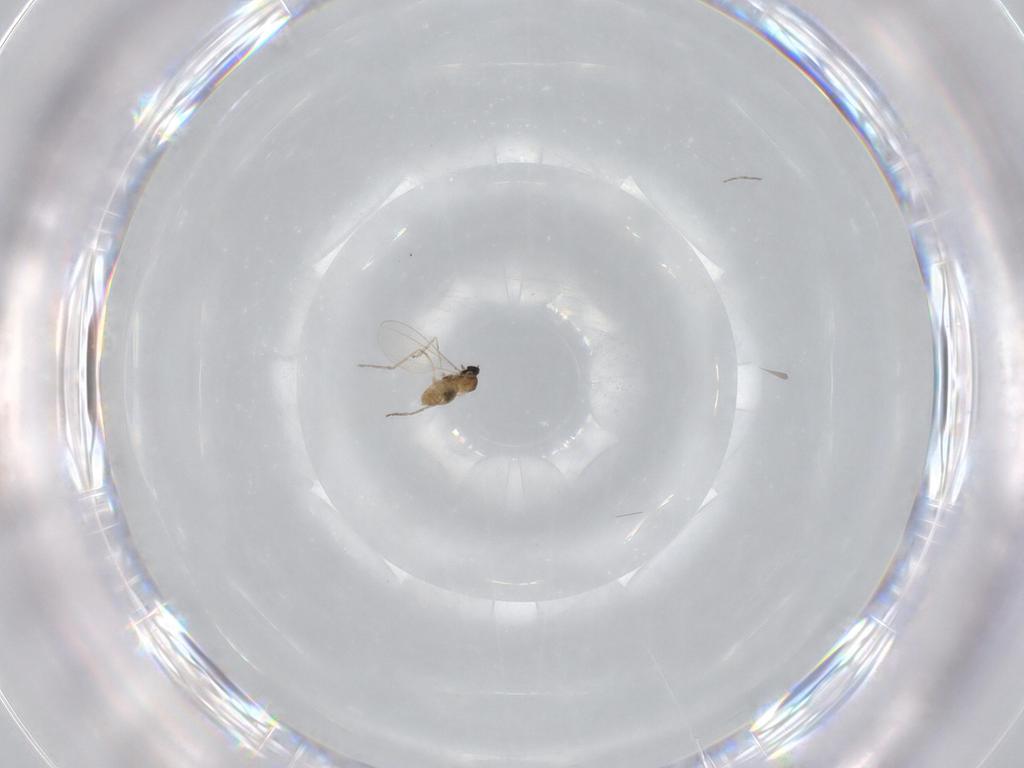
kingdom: Animalia
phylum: Arthropoda
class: Insecta
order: Diptera
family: Cecidomyiidae
